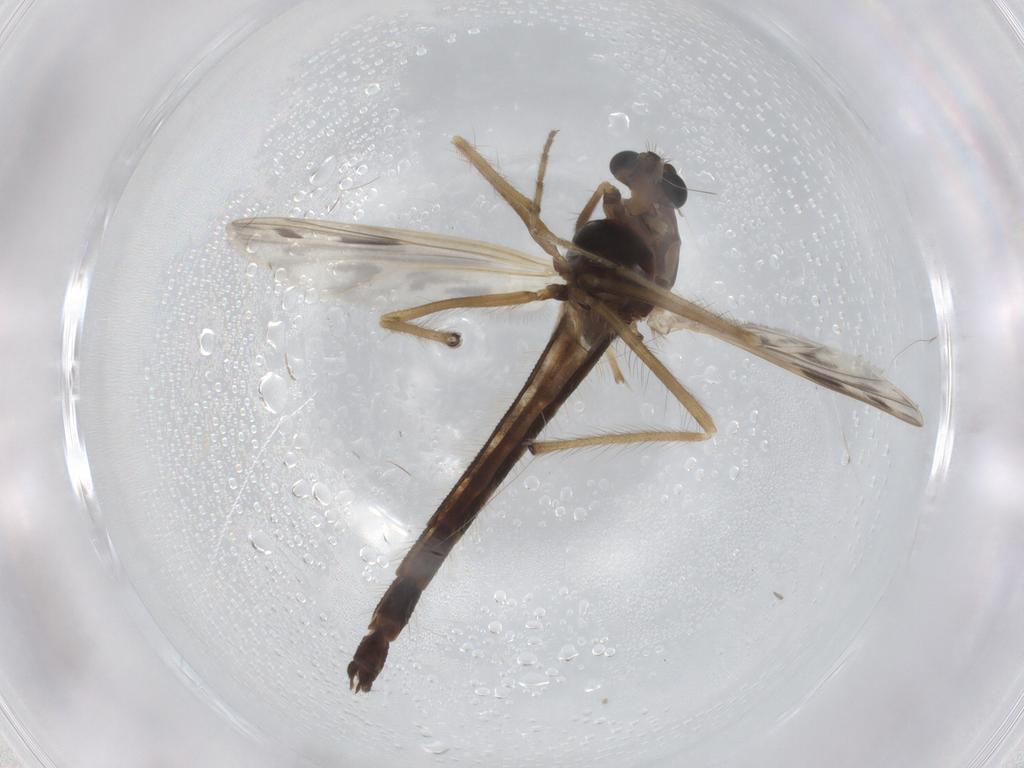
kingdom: Animalia
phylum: Arthropoda
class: Insecta
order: Diptera
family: Cecidomyiidae
